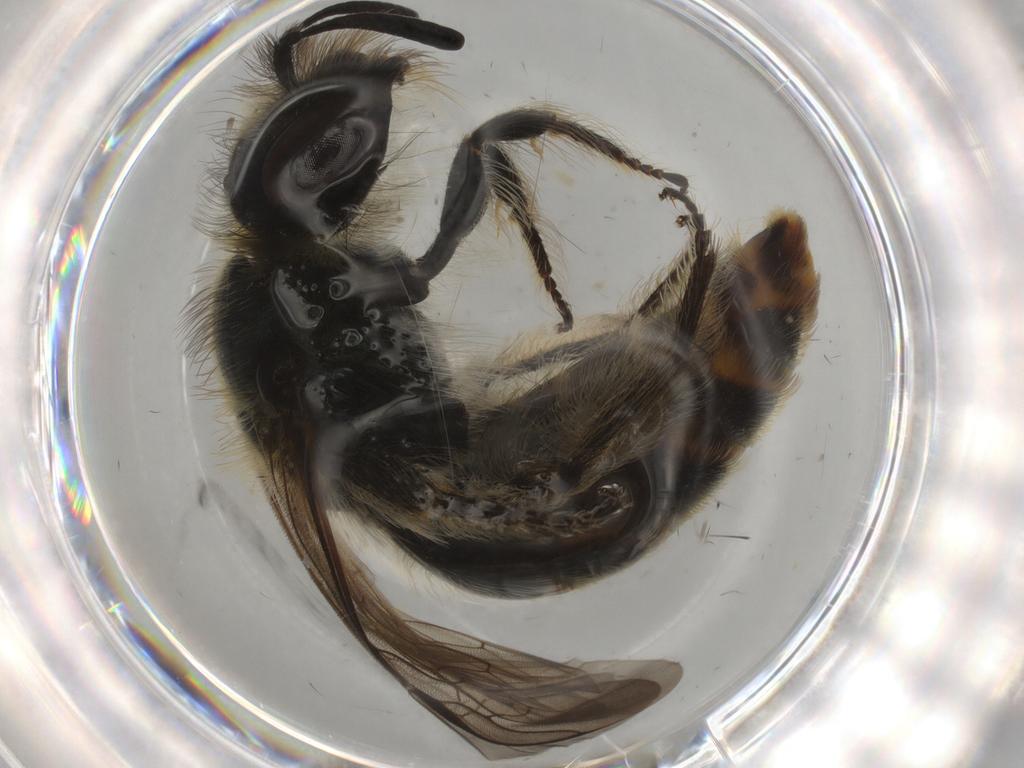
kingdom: Animalia
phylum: Arthropoda
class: Insecta
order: Hymenoptera
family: Halictidae
